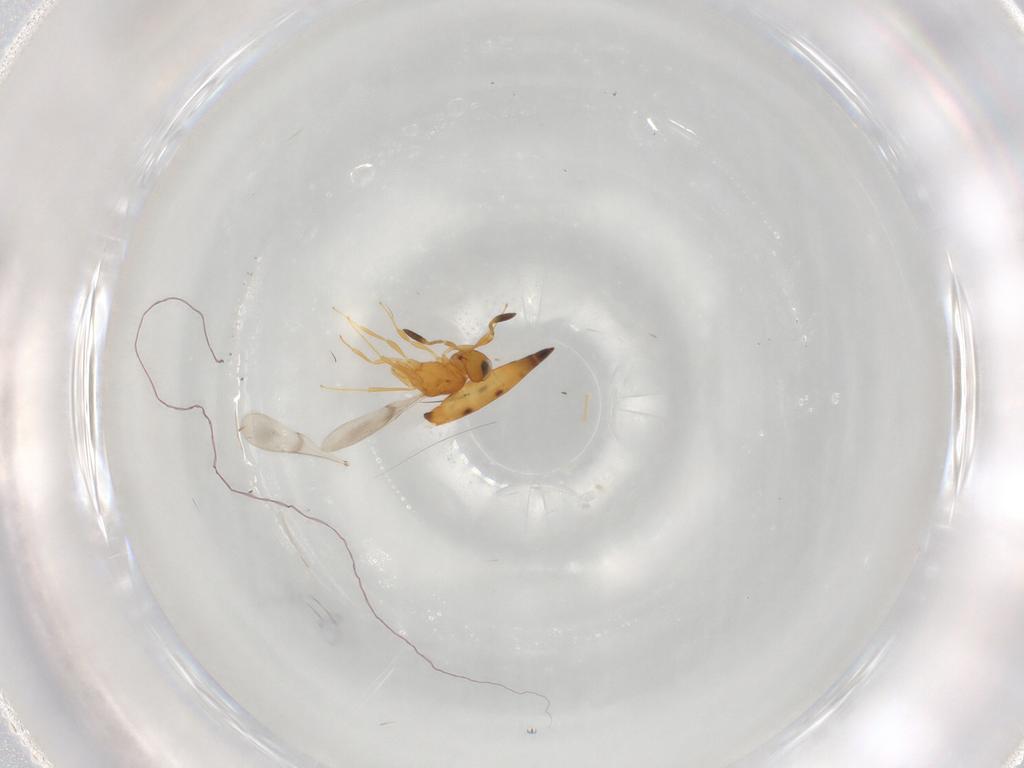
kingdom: Animalia
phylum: Arthropoda
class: Insecta
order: Hymenoptera
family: Scelionidae
